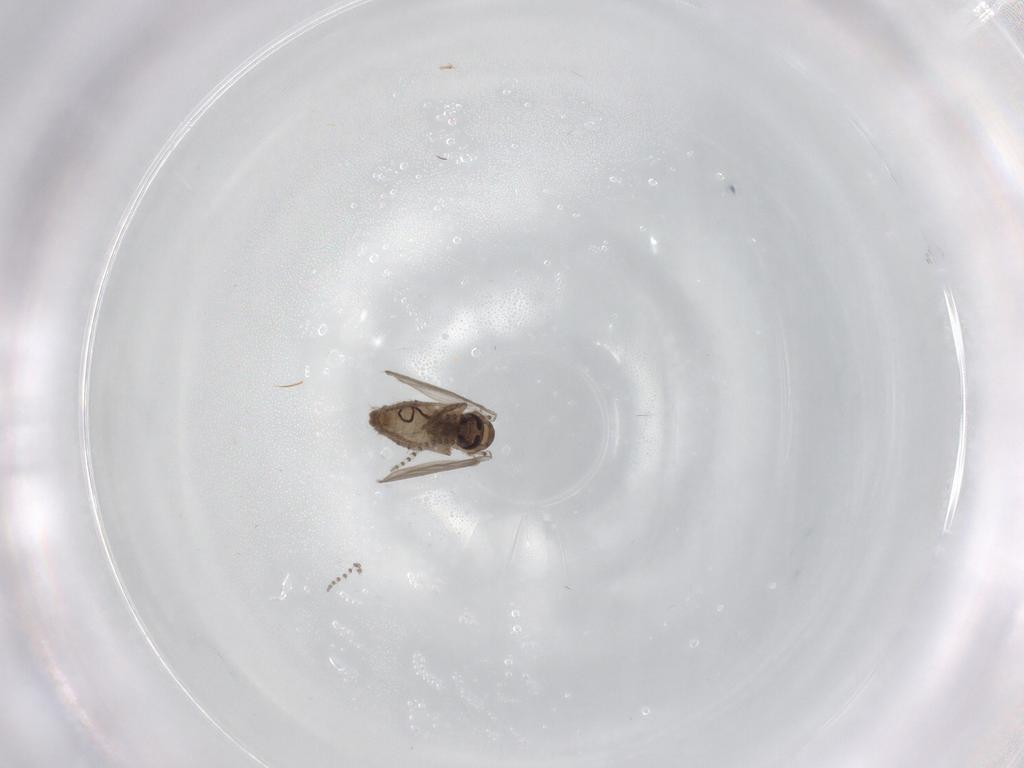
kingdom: Animalia
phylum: Arthropoda
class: Insecta
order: Diptera
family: Psychodidae
